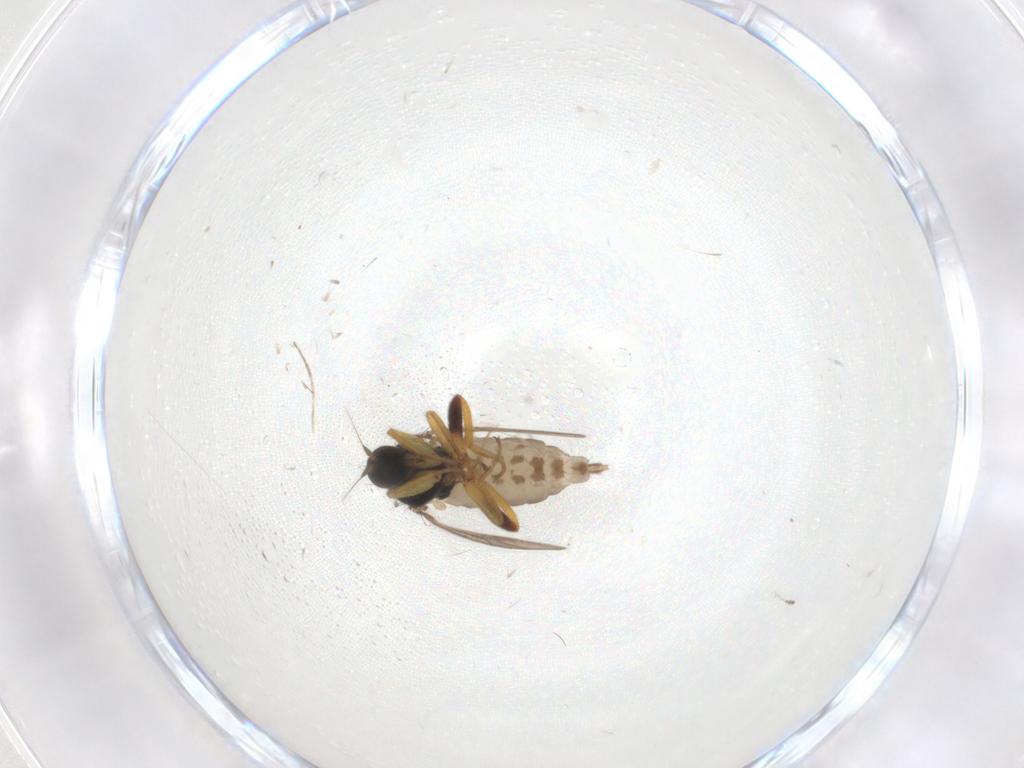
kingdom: Animalia
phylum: Arthropoda
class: Insecta
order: Diptera
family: Hybotidae
